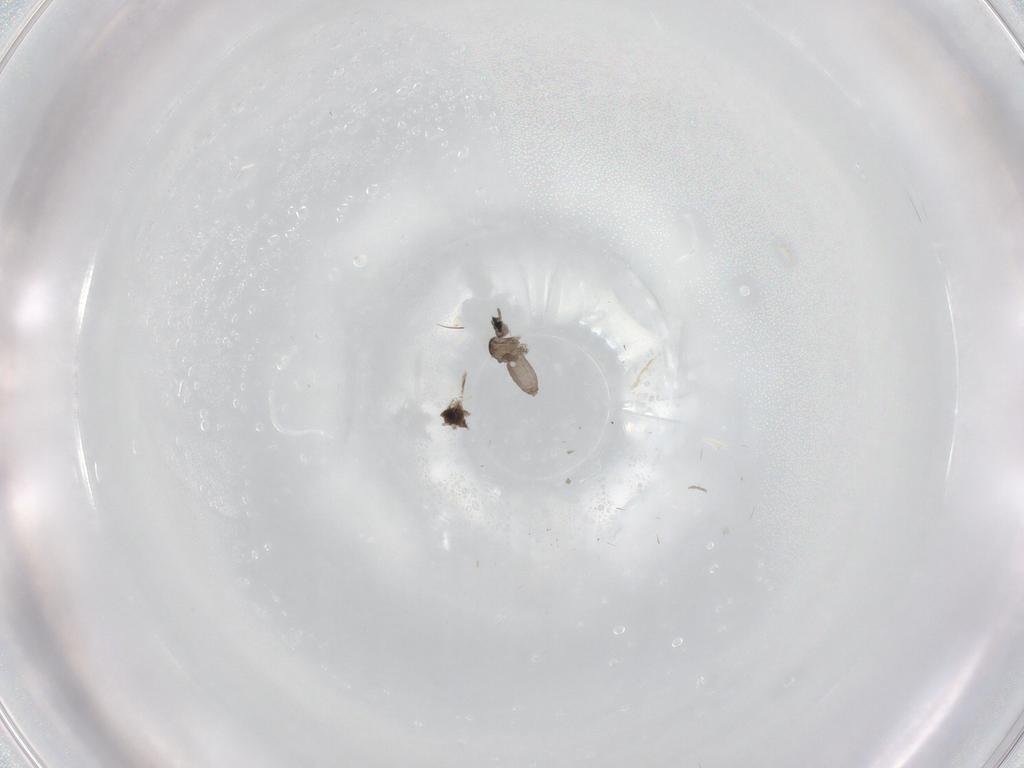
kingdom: Animalia
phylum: Arthropoda
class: Insecta
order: Diptera
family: Cecidomyiidae
